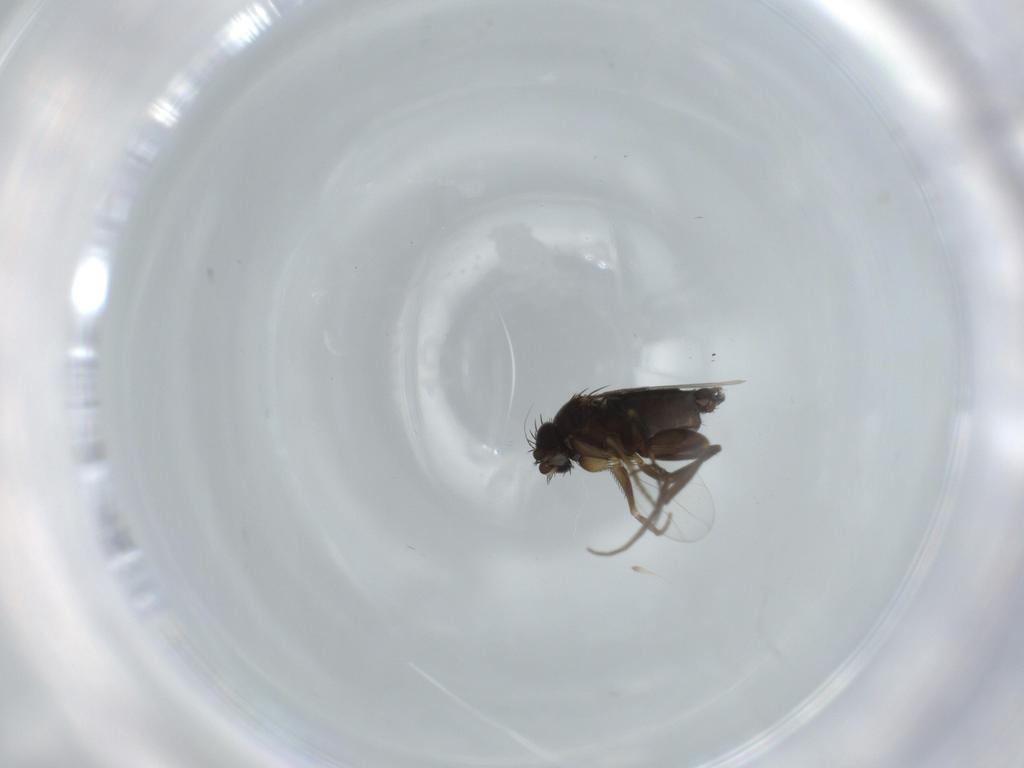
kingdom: Animalia
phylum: Arthropoda
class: Insecta
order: Diptera
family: Phoridae
